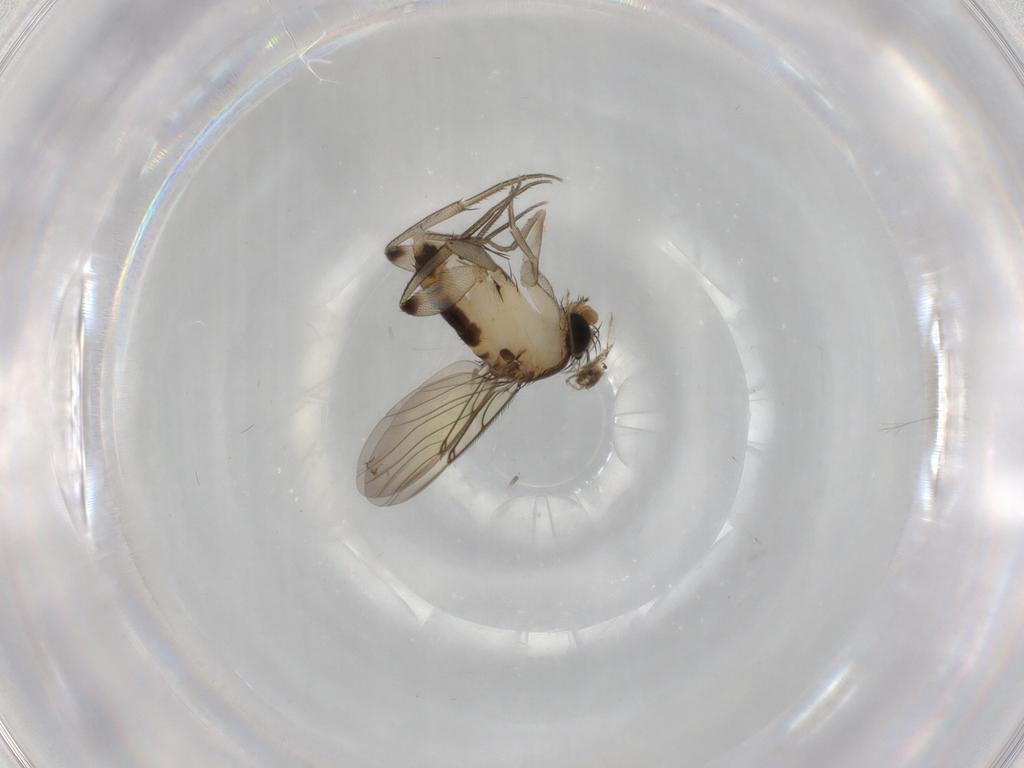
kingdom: Animalia
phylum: Arthropoda
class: Insecta
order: Diptera
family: Phoridae
